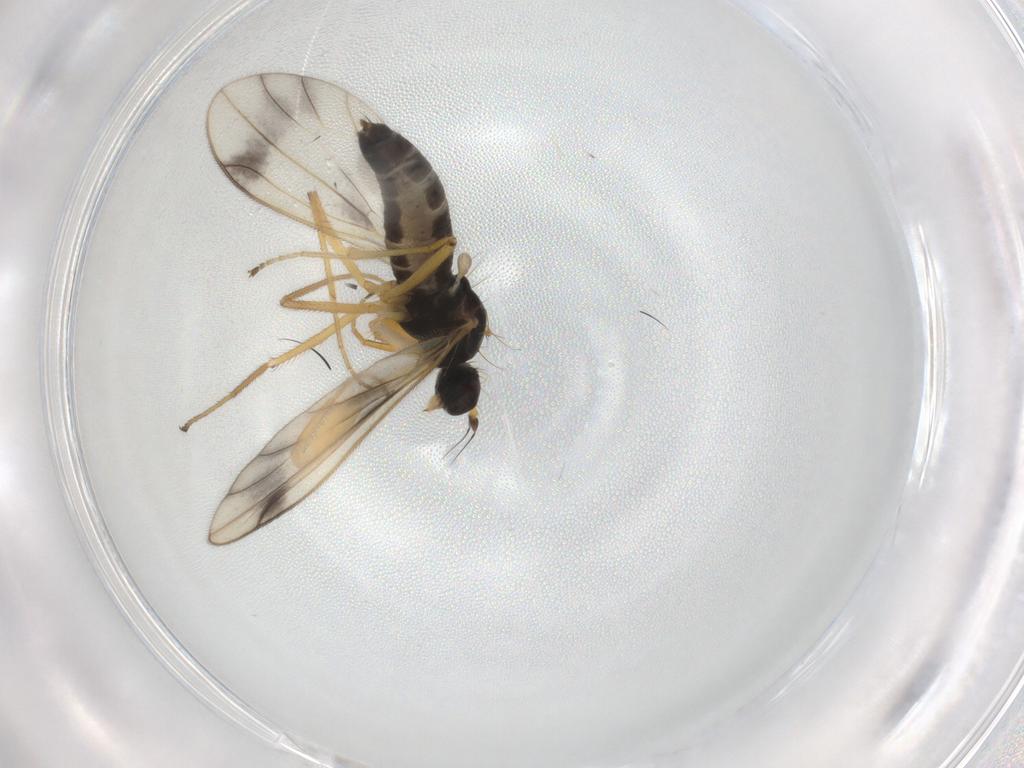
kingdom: Animalia
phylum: Arthropoda
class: Insecta
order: Diptera
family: Empididae
